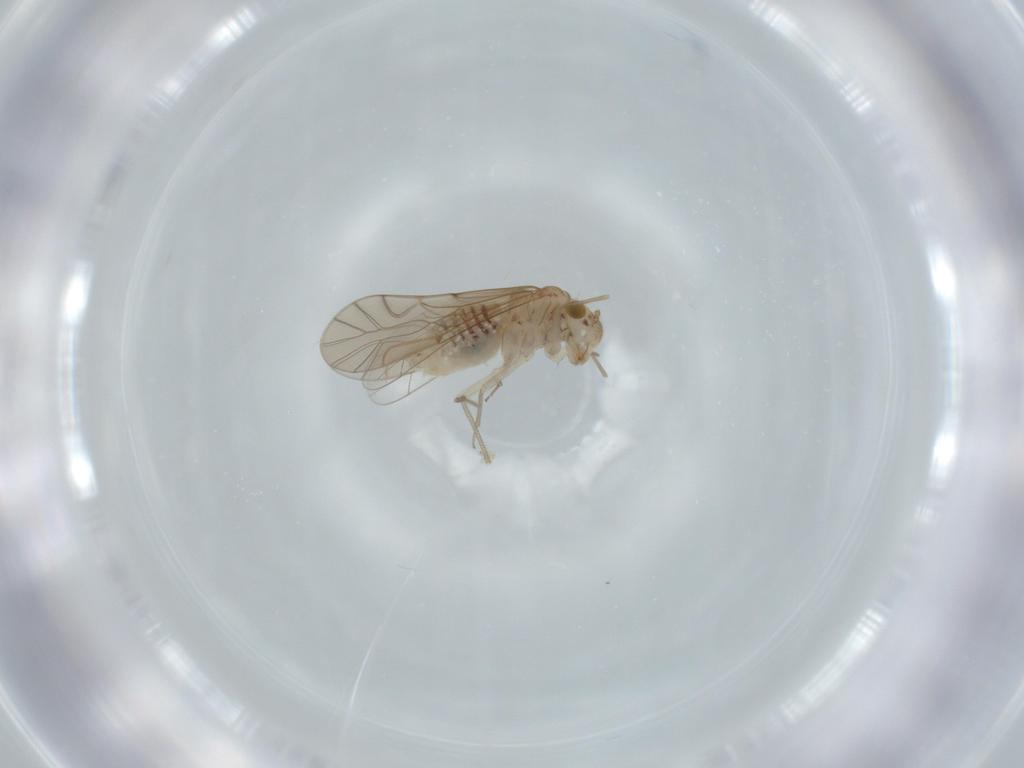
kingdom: Animalia
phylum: Arthropoda
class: Insecta
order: Psocodea
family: Lachesillidae
